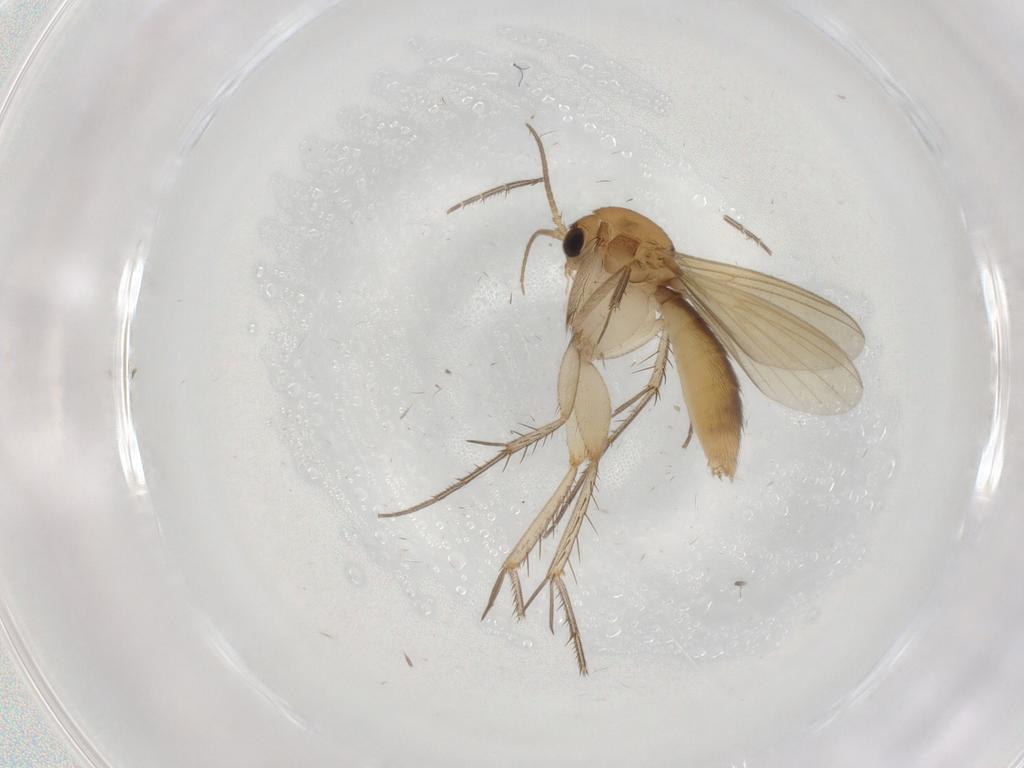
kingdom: Animalia
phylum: Arthropoda
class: Insecta
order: Diptera
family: Mycetophilidae
